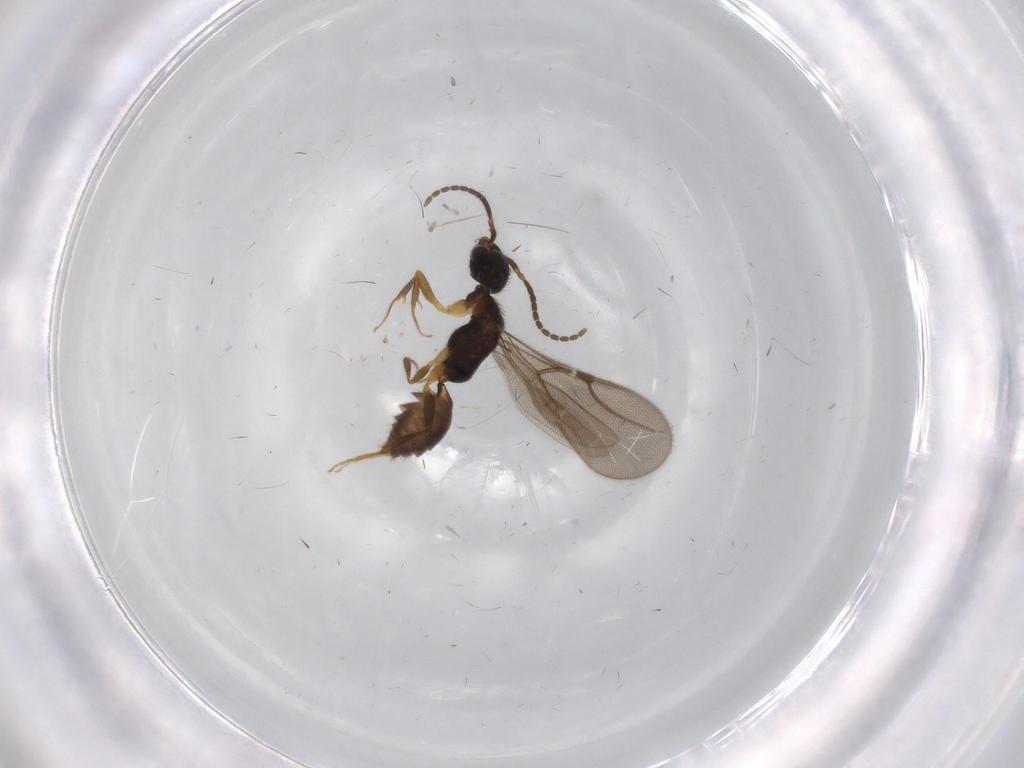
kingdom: Animalia
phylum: Arthropoda
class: Insecta
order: Hymenoptera
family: Bethylidae
